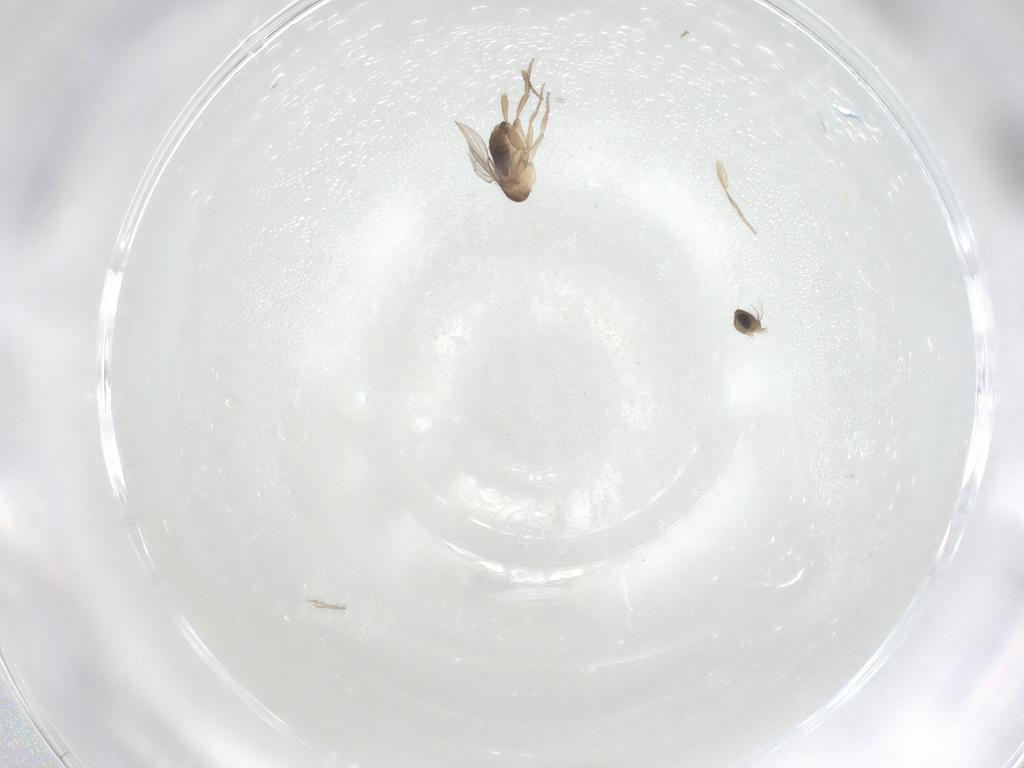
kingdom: Animalia
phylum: Arthropoda
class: Insecta
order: Diptera
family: Phoridae
